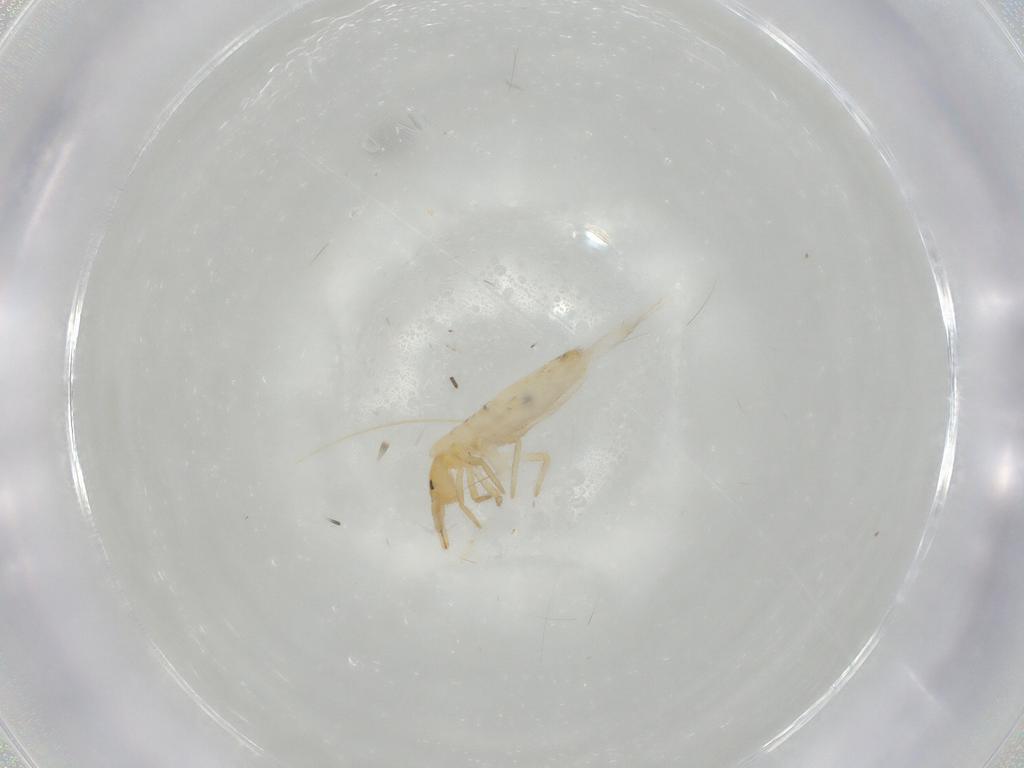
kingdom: Animalia
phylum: Arthropoda
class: Collembola
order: Entomobryomorpha
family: Entomobryidae
